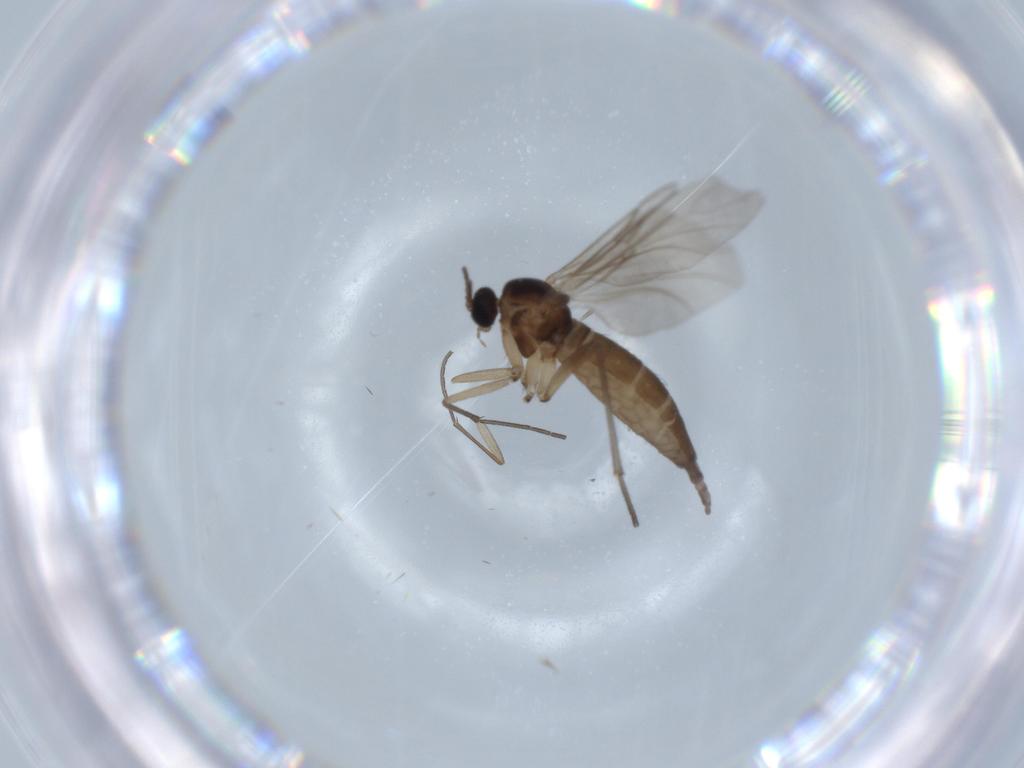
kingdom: Animalia
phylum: Arthropoda
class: Insecta
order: Diptera
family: Sciaridae
